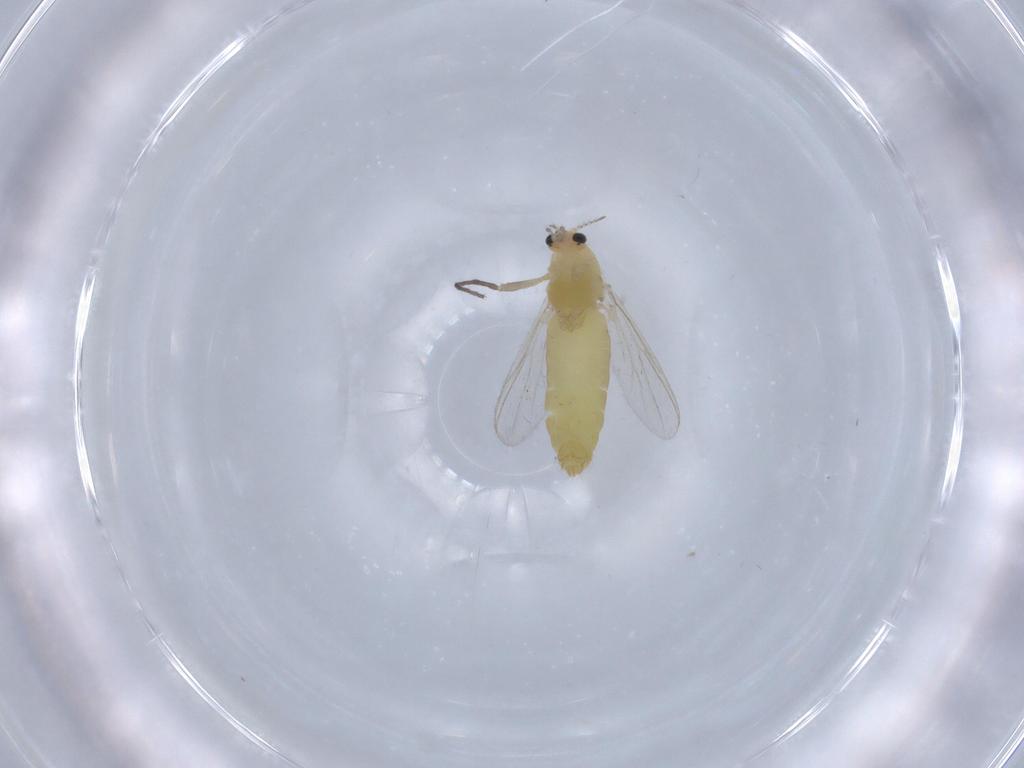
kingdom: Animalia
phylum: Arthropoda
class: Insecta
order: Diptera
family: Chironomidae
